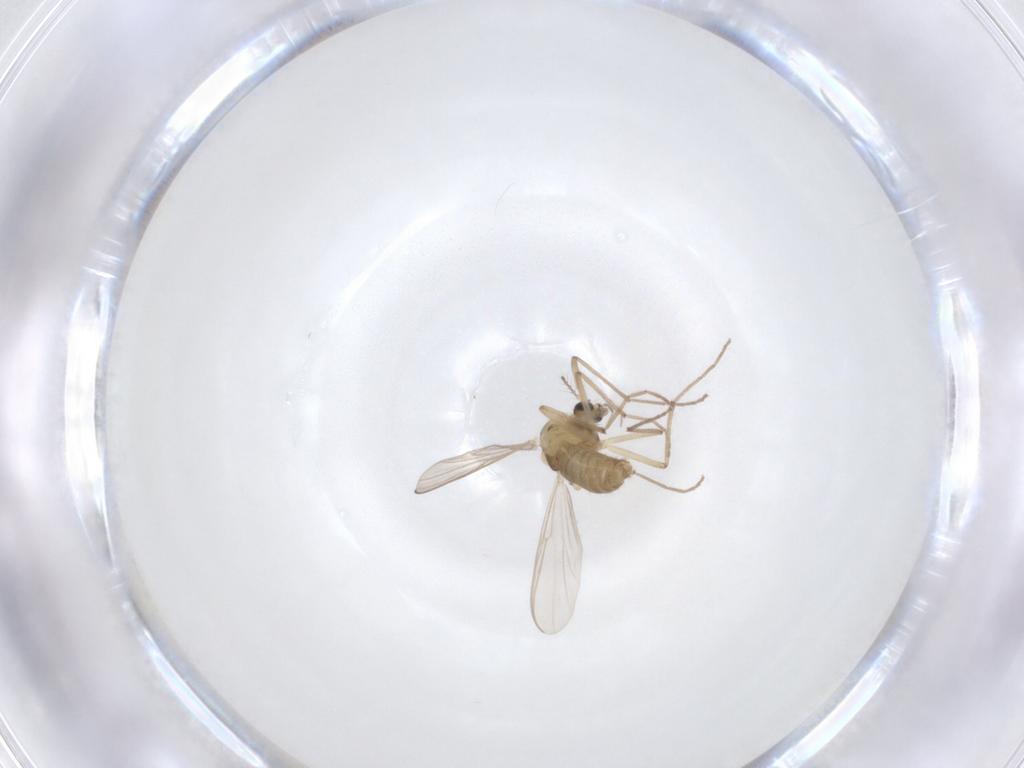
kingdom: Animalia
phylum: Arthropoda
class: Insecta
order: Diptera
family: Chironomidae
